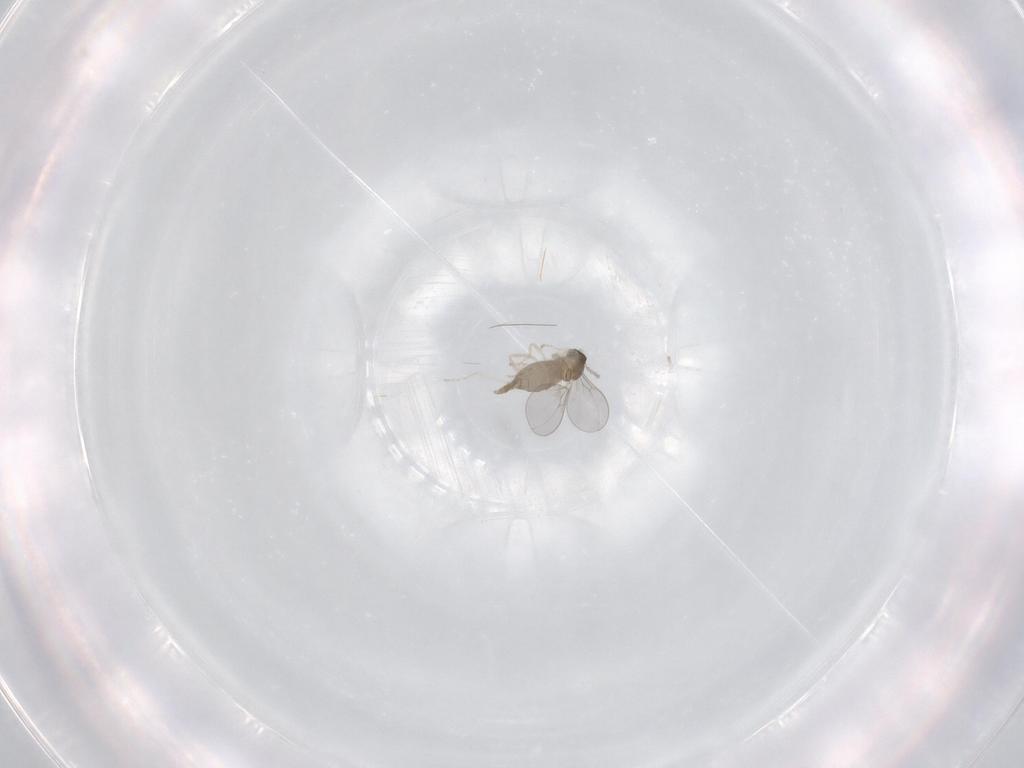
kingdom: Animalia
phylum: Arthropoda
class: Insecta
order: Diptera
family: Cecidomyiidae
